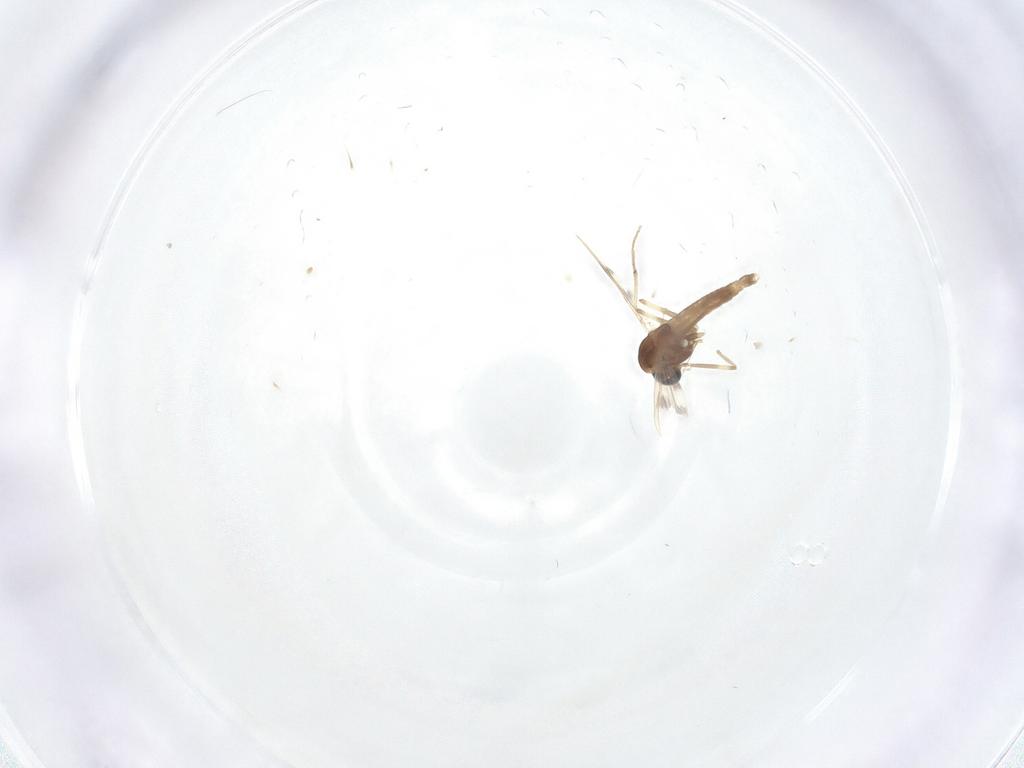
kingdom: Animalia
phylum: Arthropoda
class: Insecta
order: Diptera
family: Chironomidae
